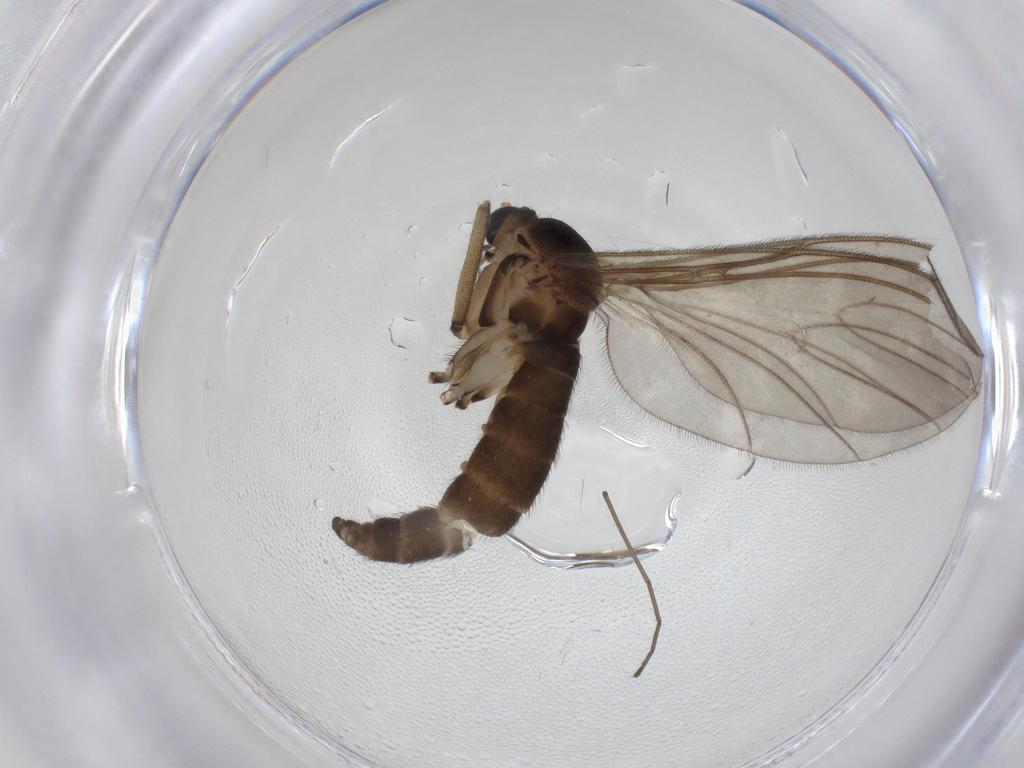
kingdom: Animalia
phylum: Arthropoda
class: Insecta
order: Diptera
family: Sciaridae
